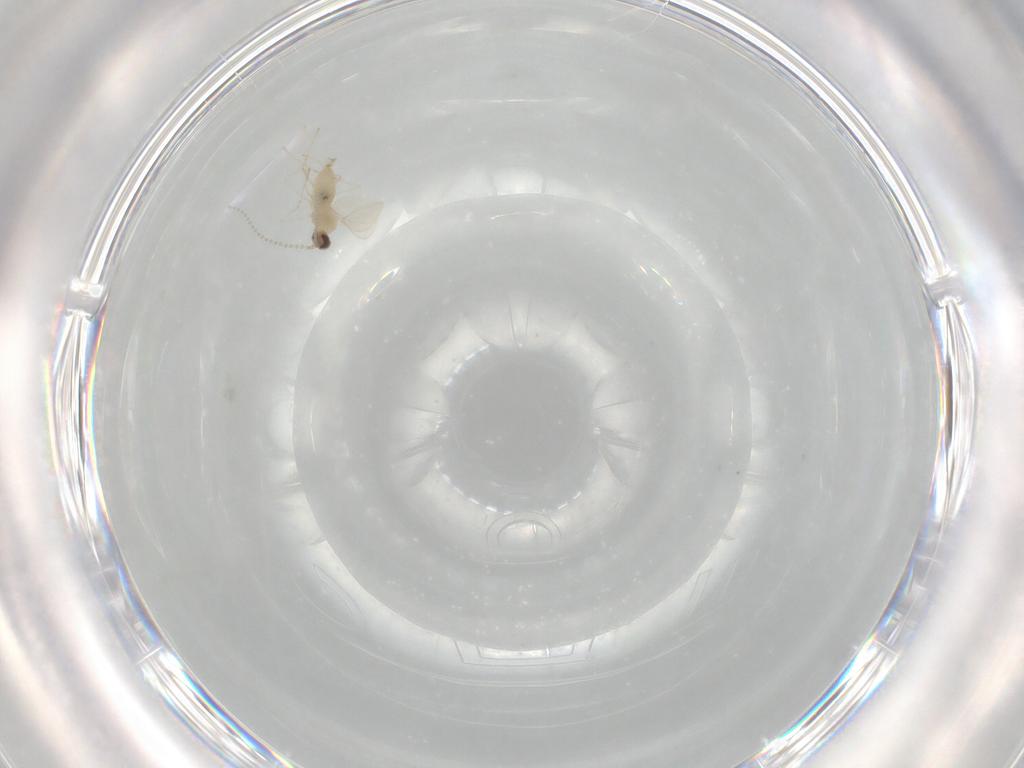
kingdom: Animalia
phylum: Arthropoda
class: Insecta
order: Diptera
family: Cecidomyiidae
